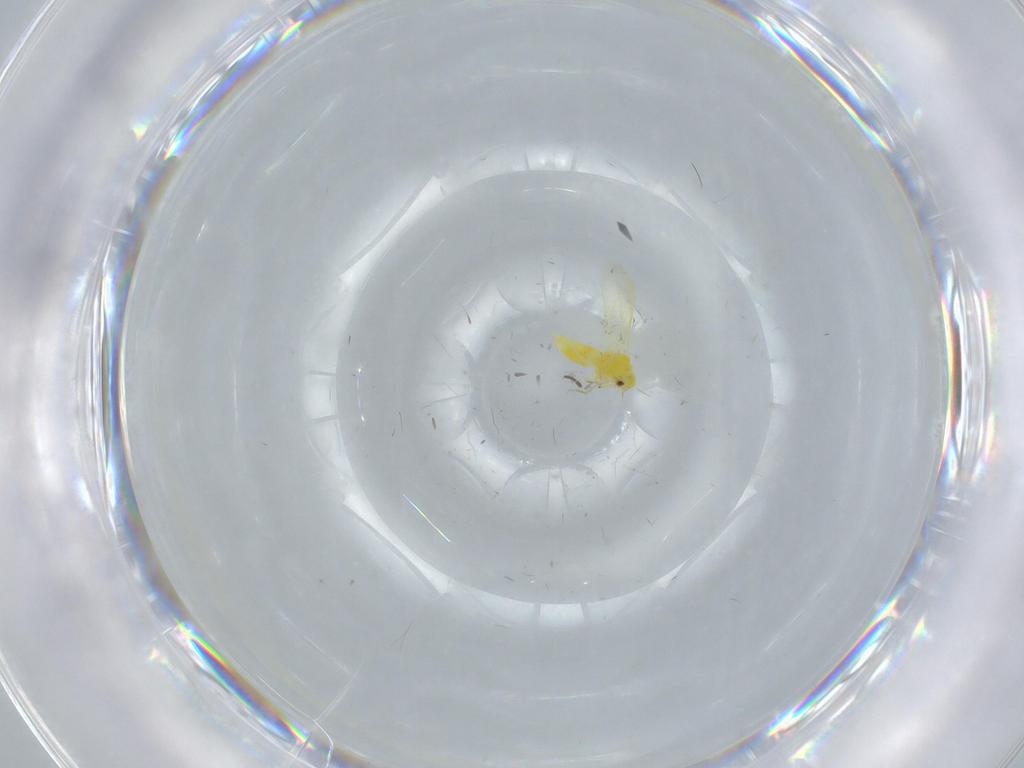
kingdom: Animalia
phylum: Arthropoda
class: Insecta
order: Hemiptera
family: Aleyrodidae
